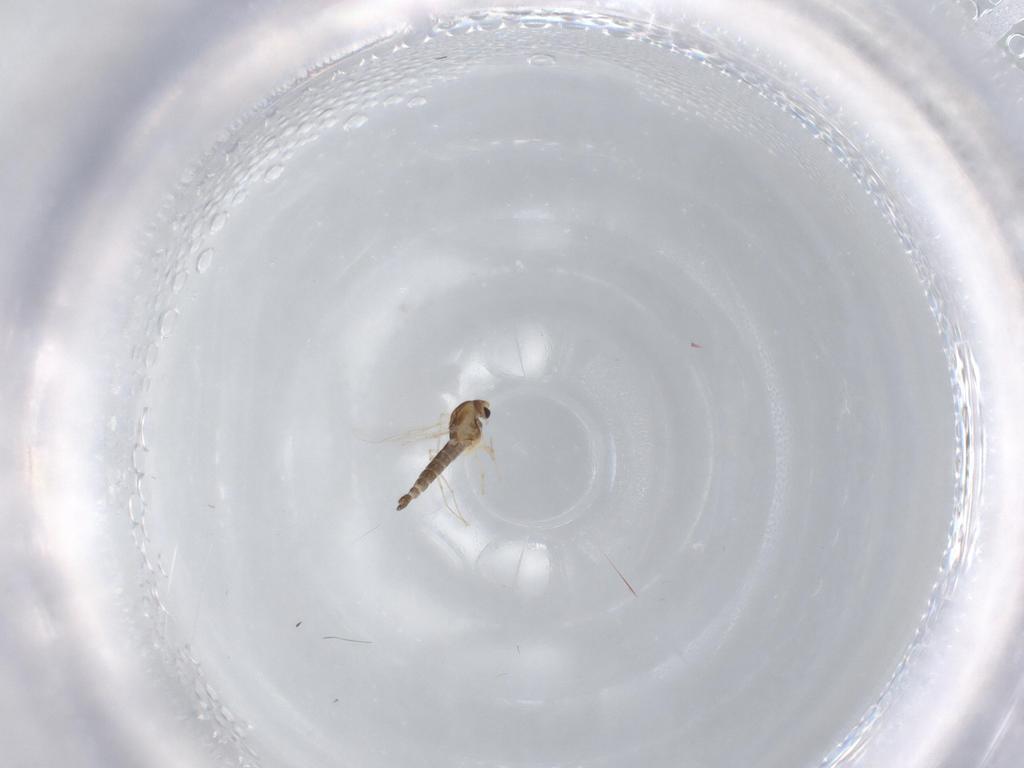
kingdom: Animalia
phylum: Arthropoda
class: Insecta
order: Diptera
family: Chironomidae
